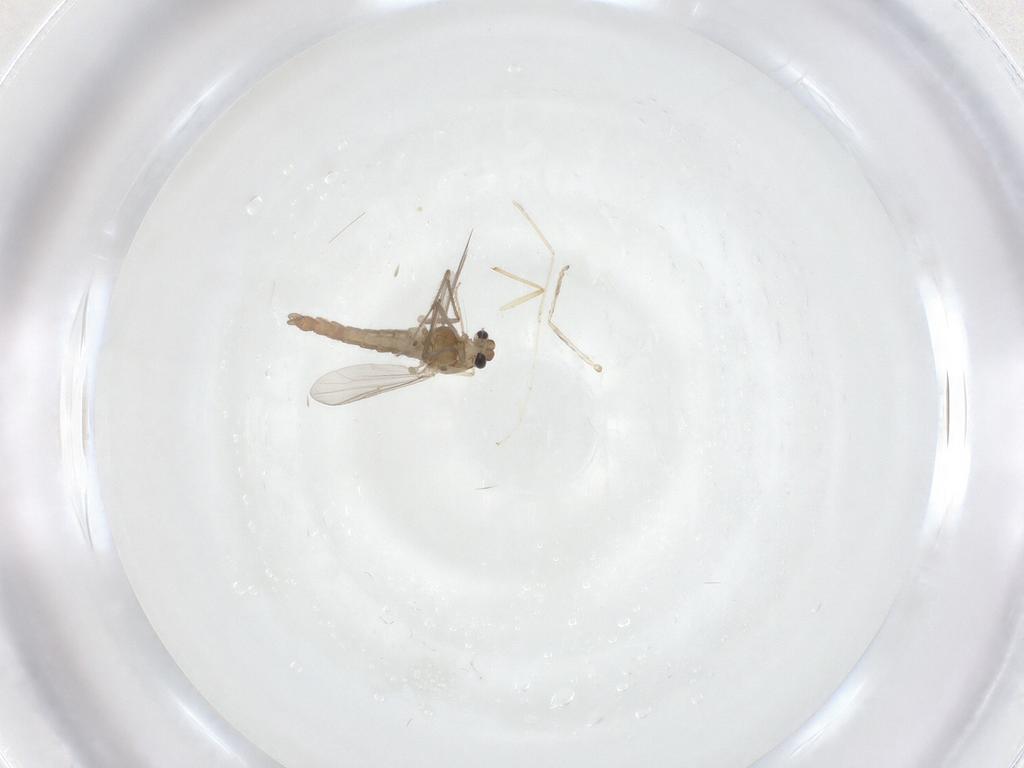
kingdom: Animalia
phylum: Arthropoda
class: Insecta
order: Diptera
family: Chironomidae
